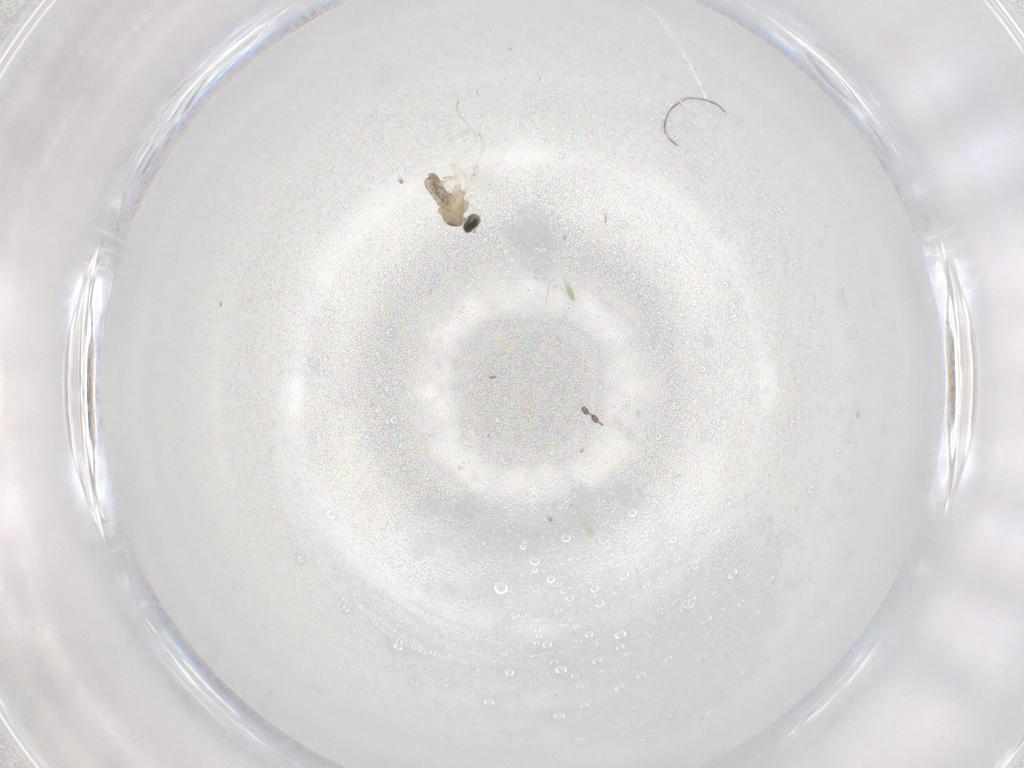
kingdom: Animalia
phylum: Arthropoda
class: Insecta
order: Diptera
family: Cecidomyiidae
